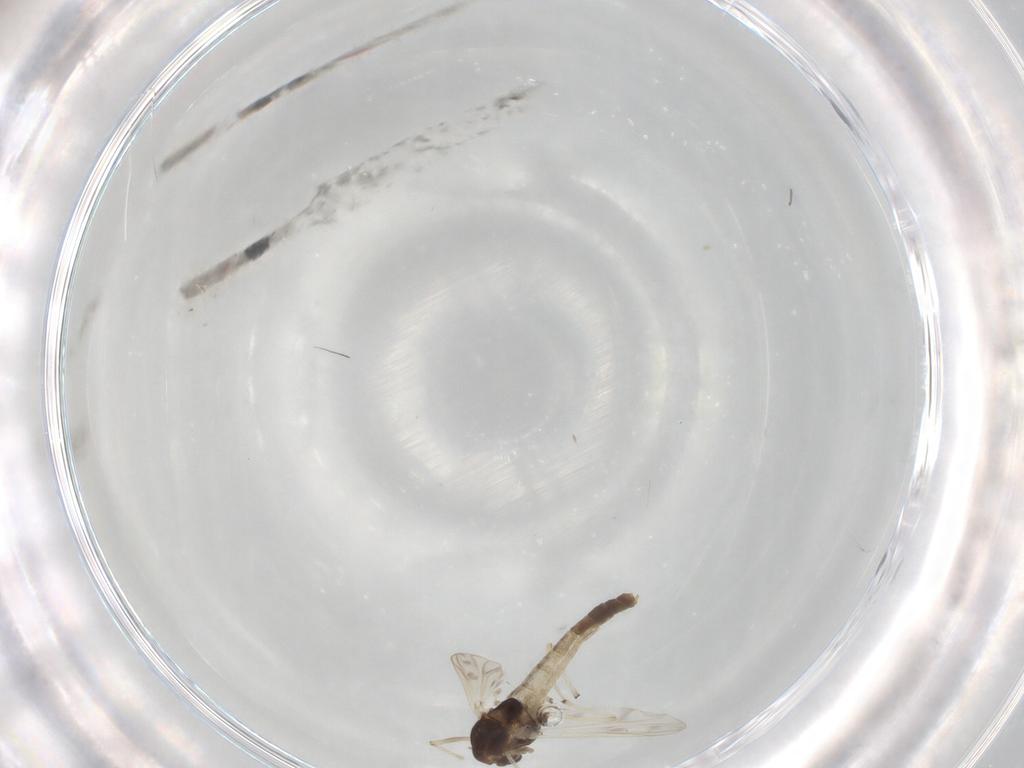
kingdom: Animalia
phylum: Arthropoda
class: Insecta
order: Diptera
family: Chironomidae
